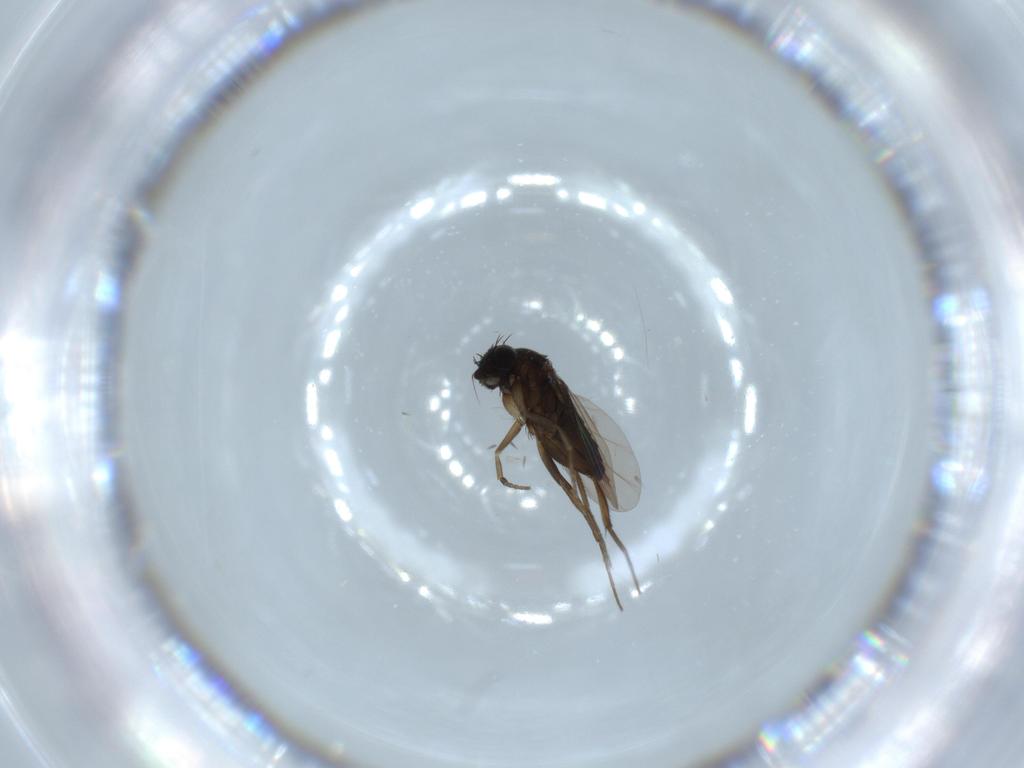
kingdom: Animalia
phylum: Arthropoda
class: Insecta
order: Diptera
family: Phoridae
